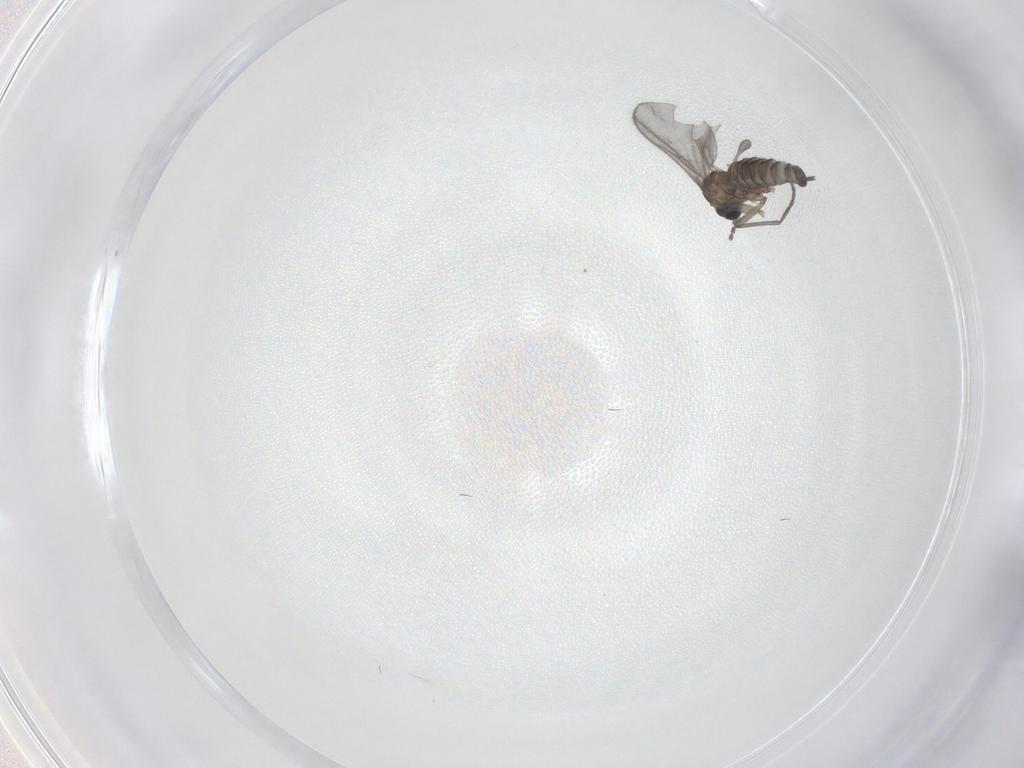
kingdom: Animalia
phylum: Arthropoda
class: Insecta
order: Diptera
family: Sciaridae
